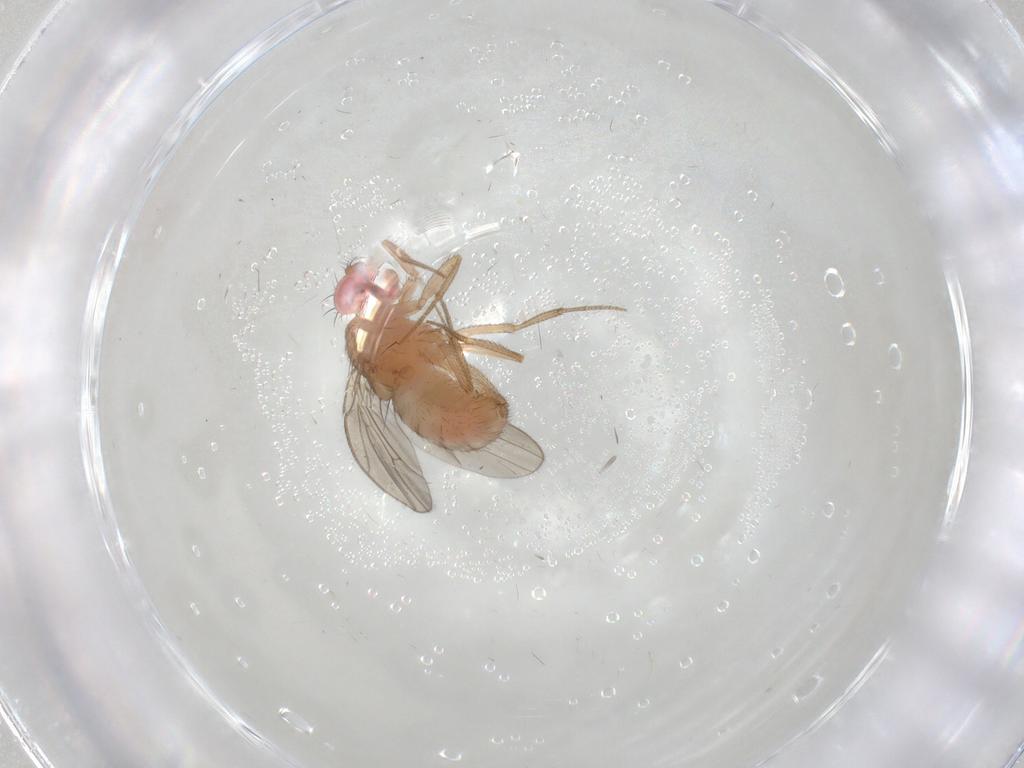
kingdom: Animalia
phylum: Arthropoda
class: Insecta
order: Diptera
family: Drosophilidae
